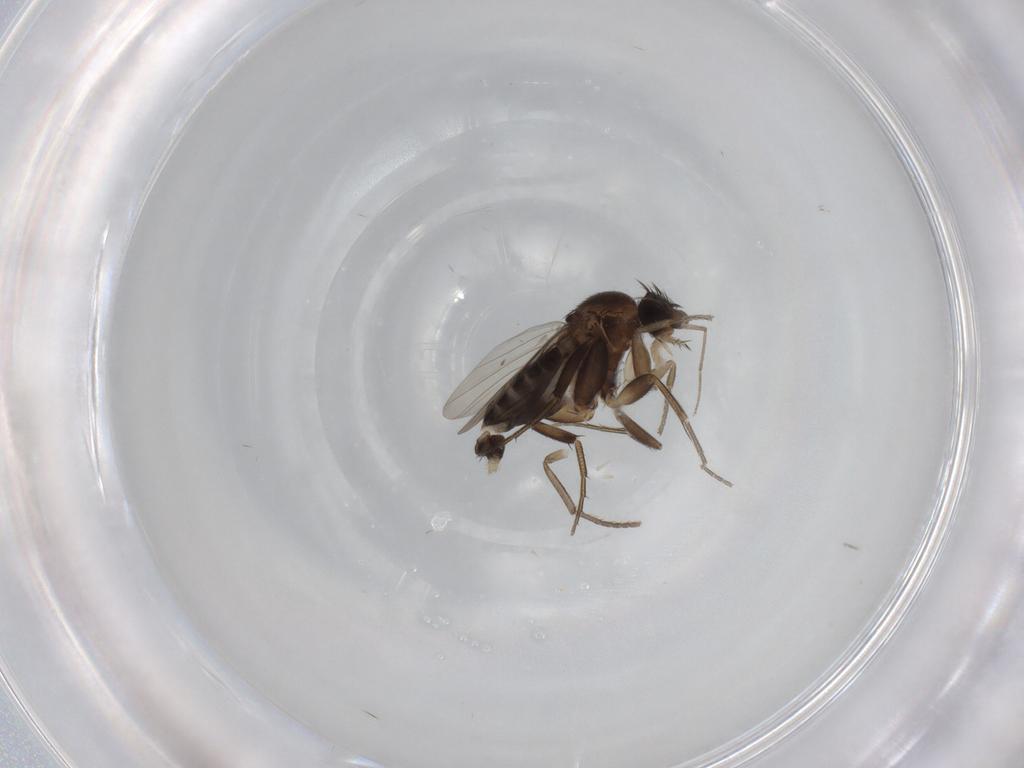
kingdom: Animalia
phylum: Arthropoda
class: Insecta
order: Diptera
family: Psychodidae
